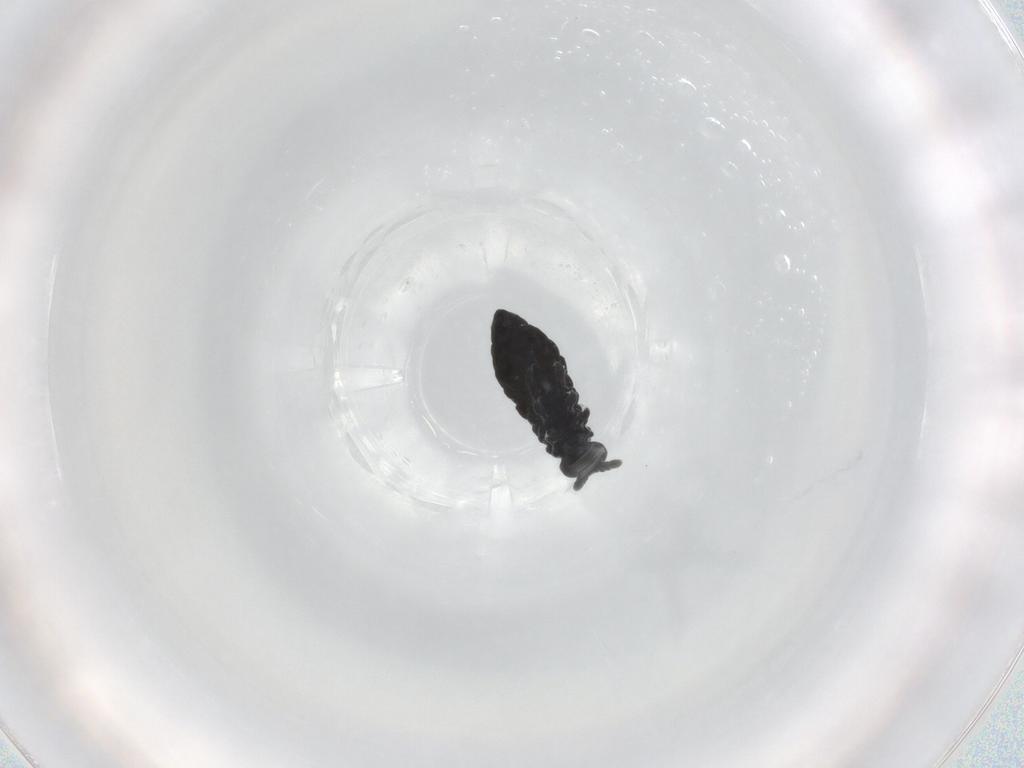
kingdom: Animalia
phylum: Arthropoda
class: Collembola
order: Poduromorpha
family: Hypogastruridae
